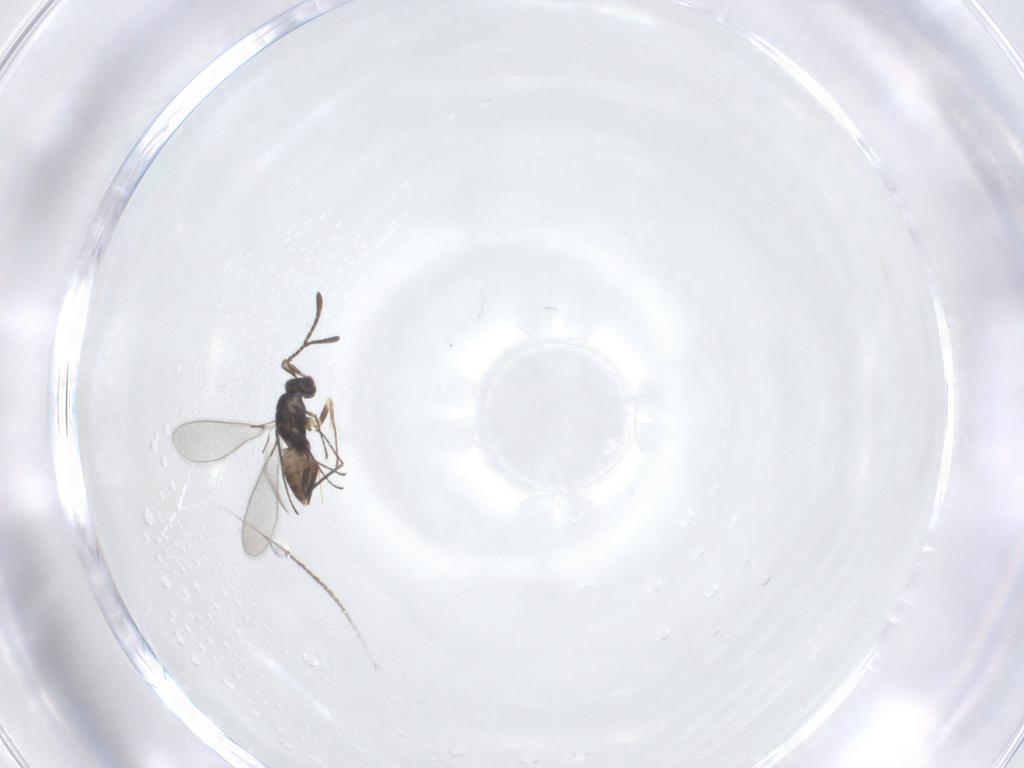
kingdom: Animalia
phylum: Arthropoda
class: Insecta
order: Hymenoptera
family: Mymaridae
